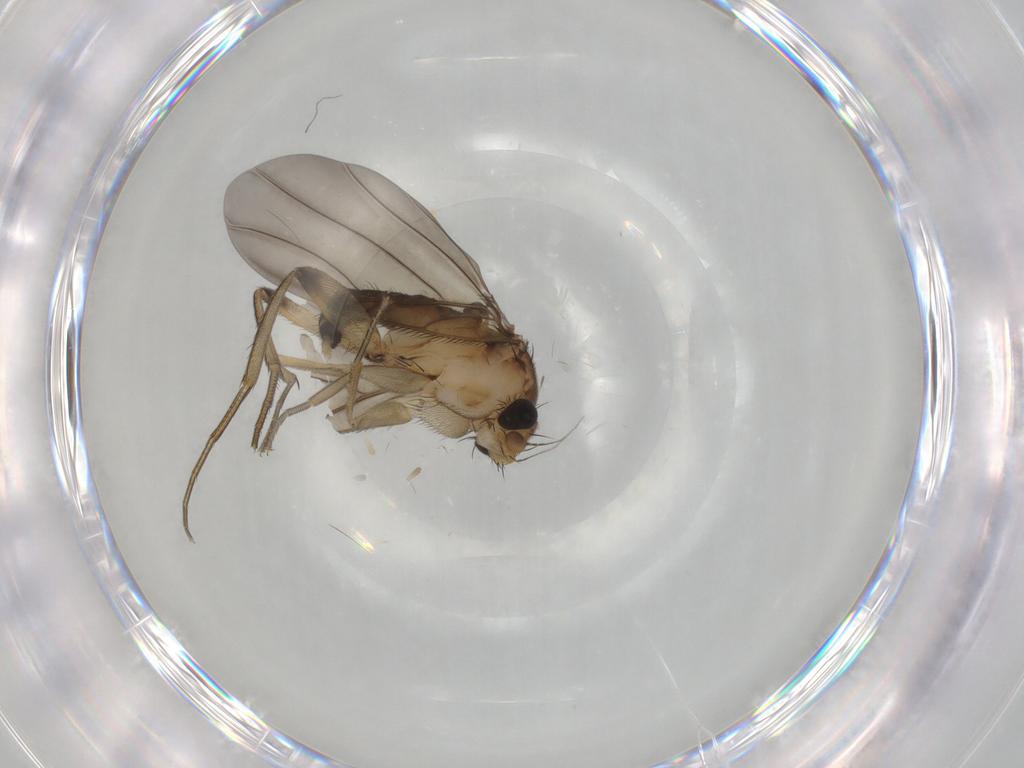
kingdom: Animalia
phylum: Arthropoda
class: Insecta
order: Diptera
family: Phoridae
